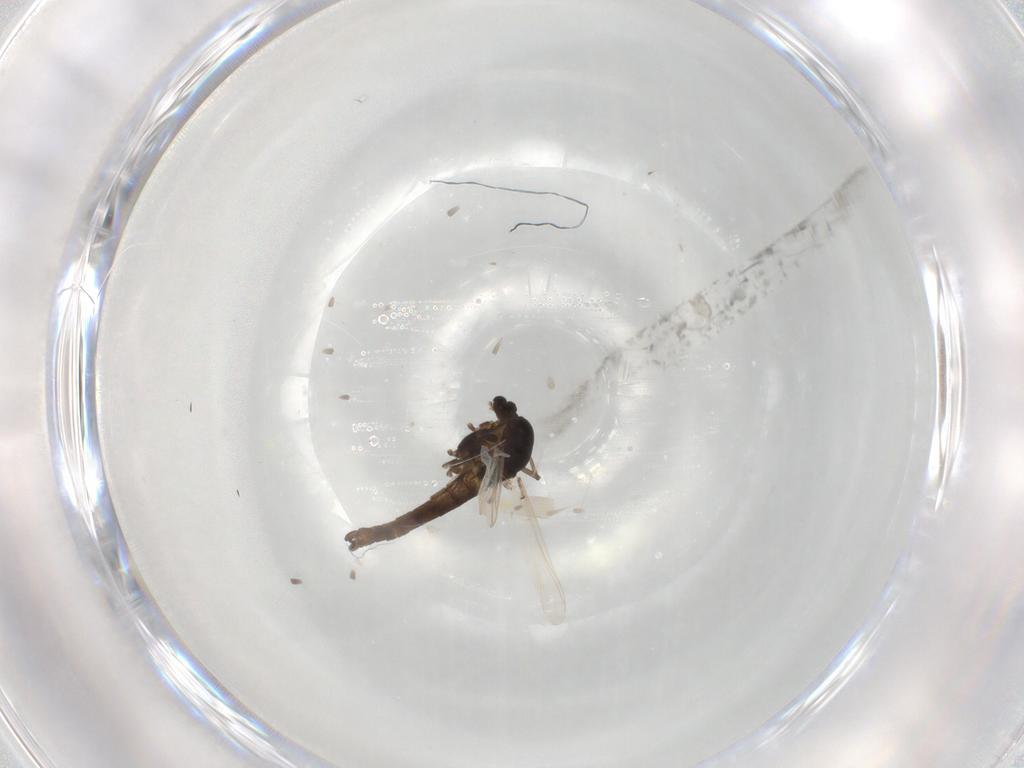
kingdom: Animalia
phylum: Arthropoda
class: Insecta
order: Diptera
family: Chironomidae
